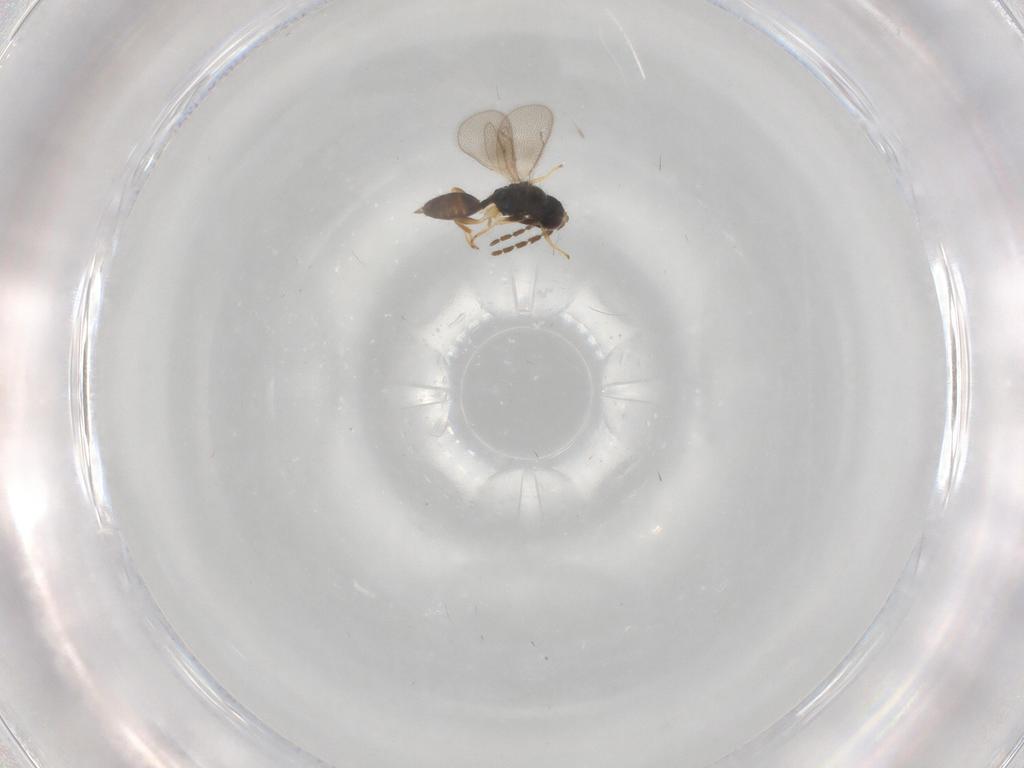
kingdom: Animalia
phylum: Arthropoda
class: Insecta
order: Hymenoptera
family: Eulophidae
